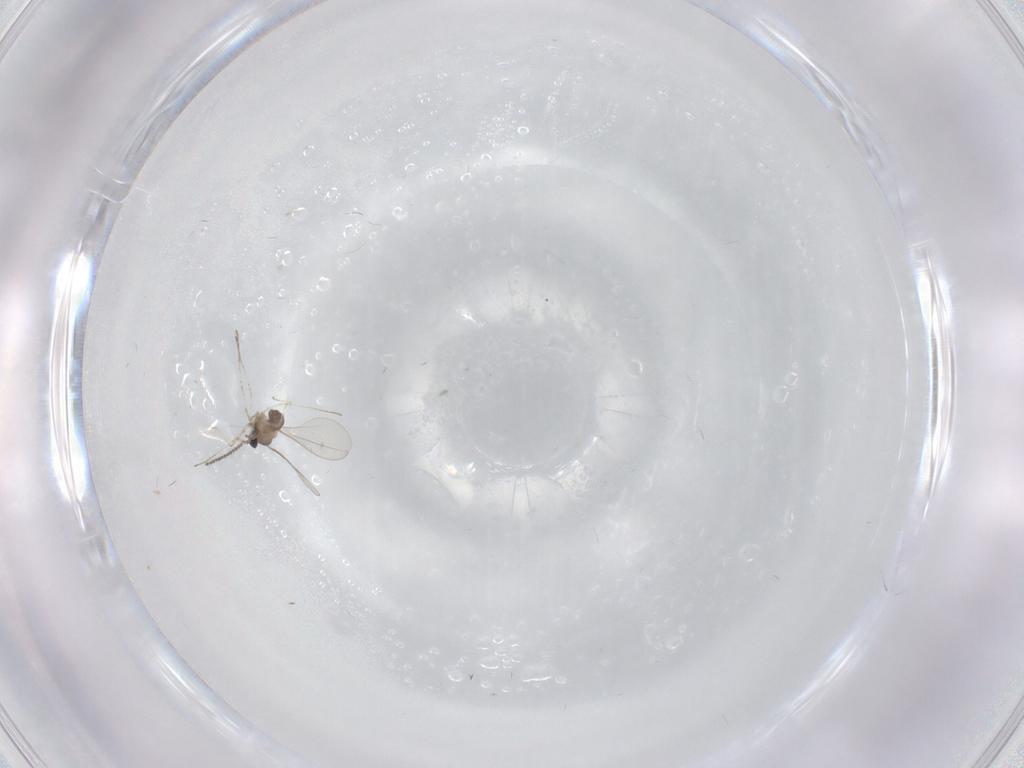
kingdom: Animalia
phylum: Arthropoda
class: Insecta
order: Diptera
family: Cecidomyiidae
